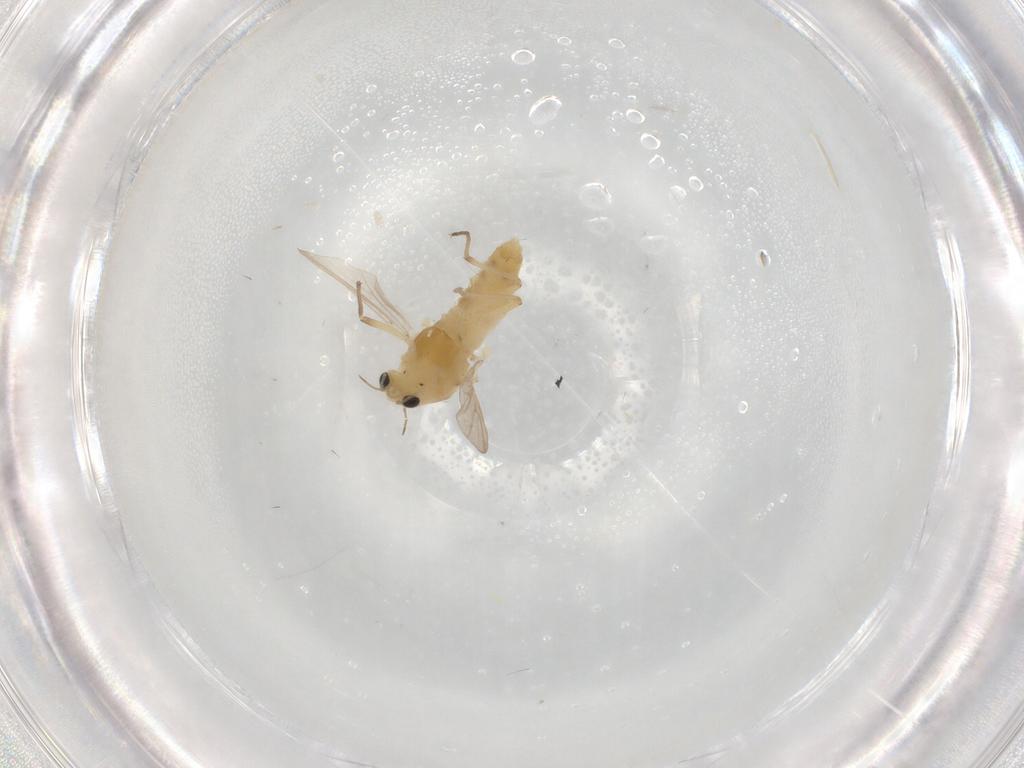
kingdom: Animalia
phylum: Arthropoda
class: Insecta
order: Diptera
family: Chironomidae
